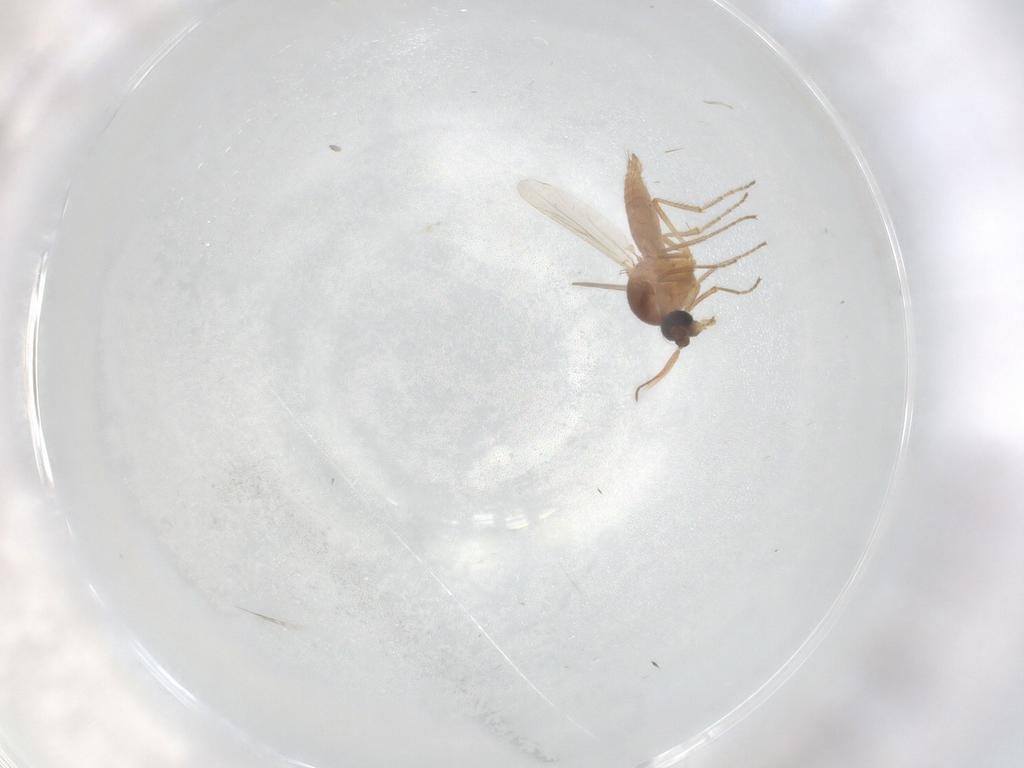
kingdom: Animalia
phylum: Arthropoda
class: Insecta
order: Diptera
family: Ceratopogonidae
